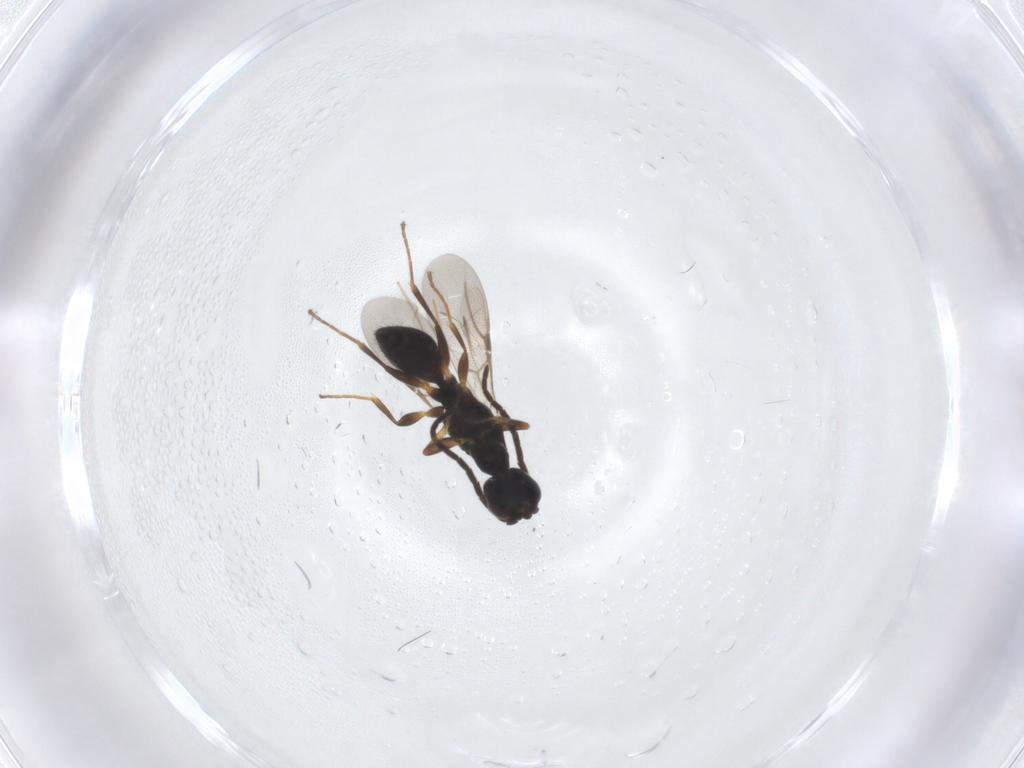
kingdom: Animalia
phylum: Arthropoda
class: Insecta
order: Hymenoptera
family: Bethylidae
